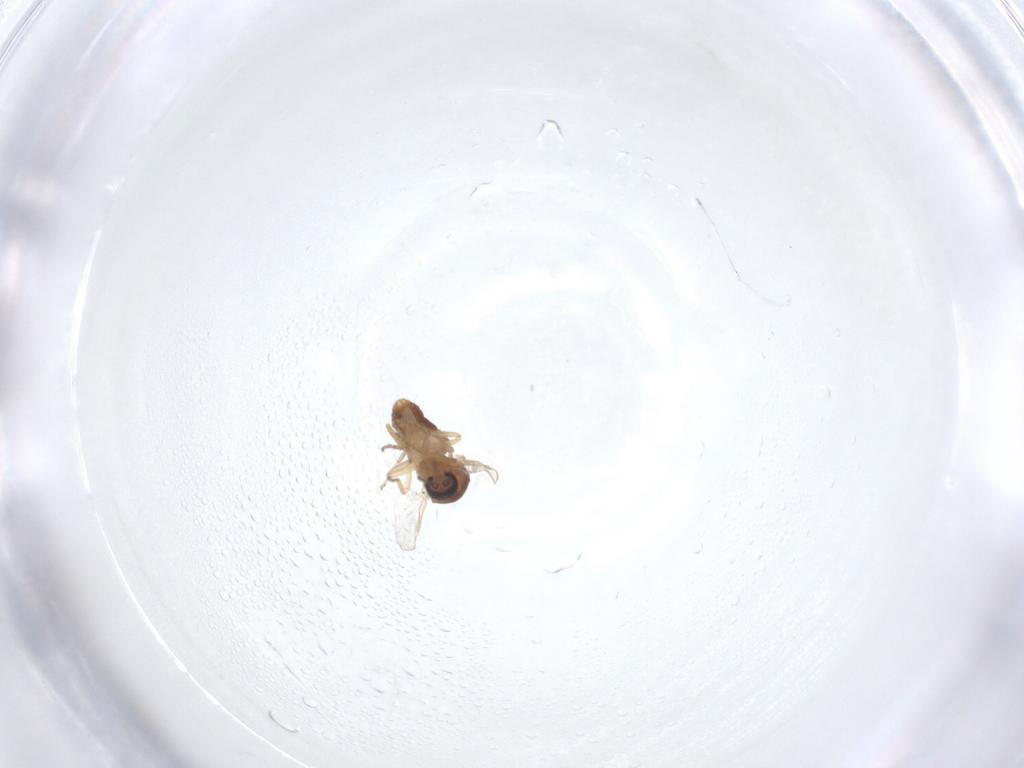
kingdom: Animalia
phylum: Arthropoda
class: Insecta
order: Diptera
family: Ceratopogonidae
